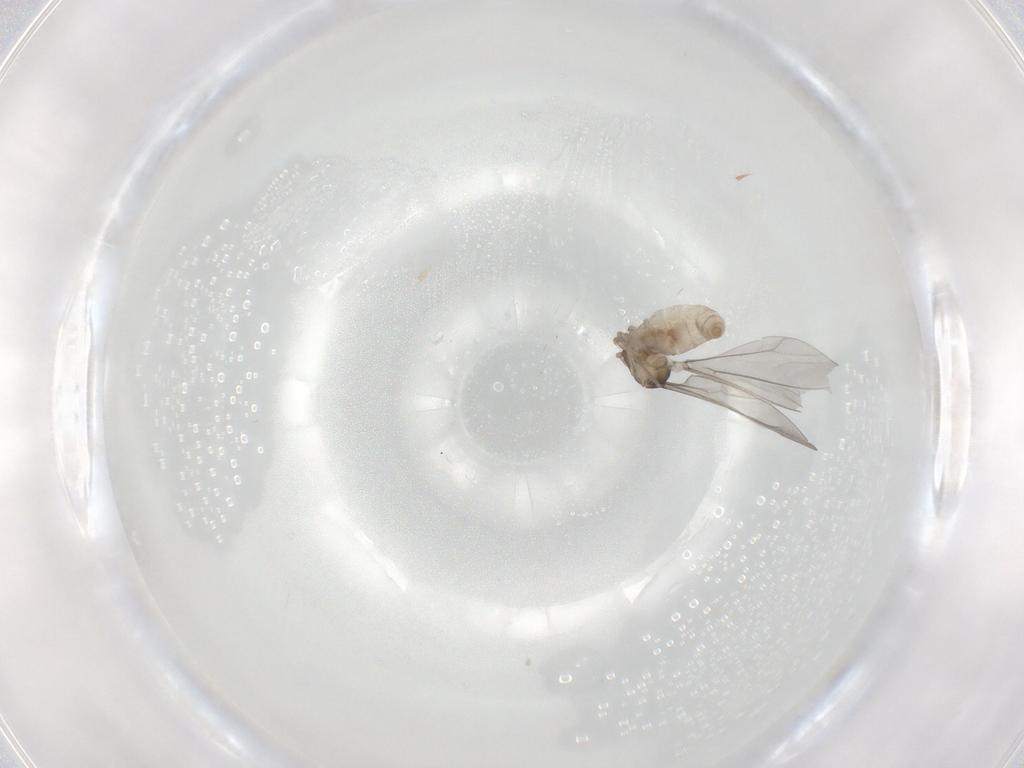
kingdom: Animalia
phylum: Arthropoda
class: Insecta
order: Diptera
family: Cecidomyiidae
